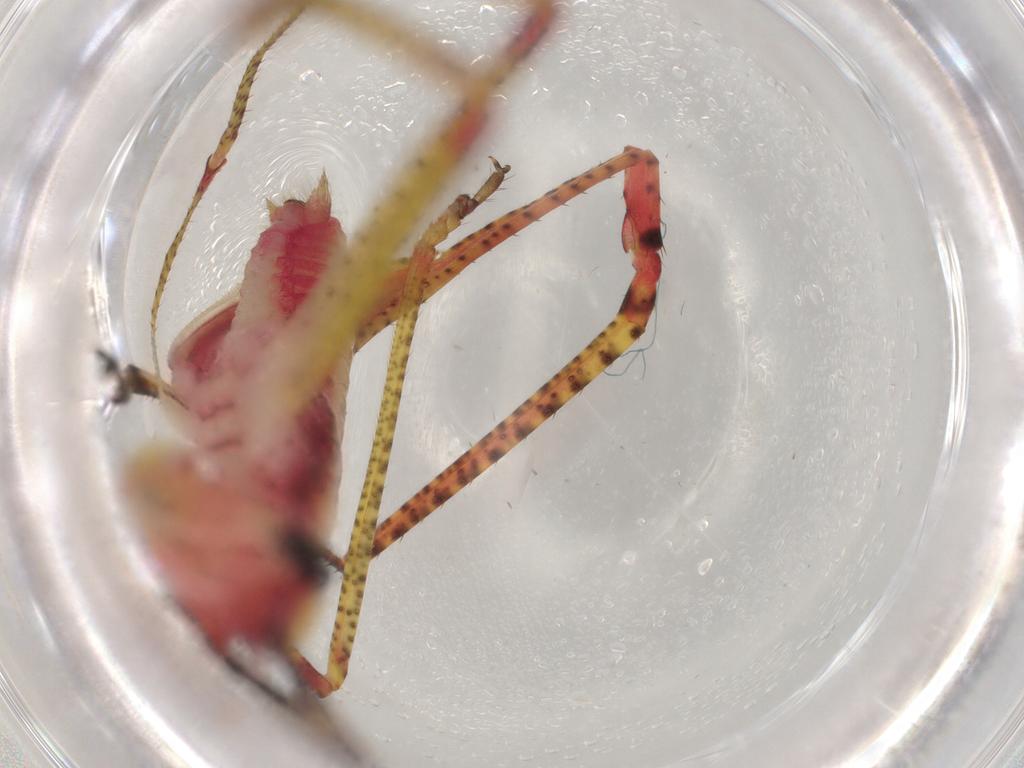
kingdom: Animalia
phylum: Arthropoda
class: Insecta
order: Orthoptera
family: Tettigoniidae
